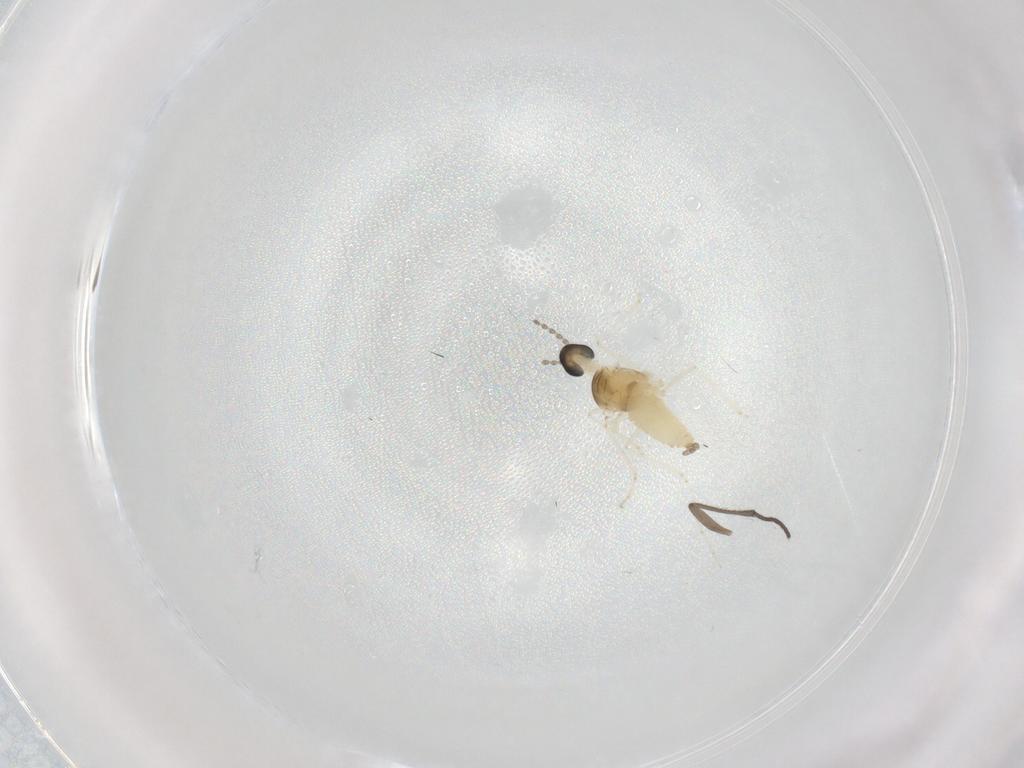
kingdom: Animalia
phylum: Arthropoda
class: Insecta
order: Diptera
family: Cecidomyiidae
